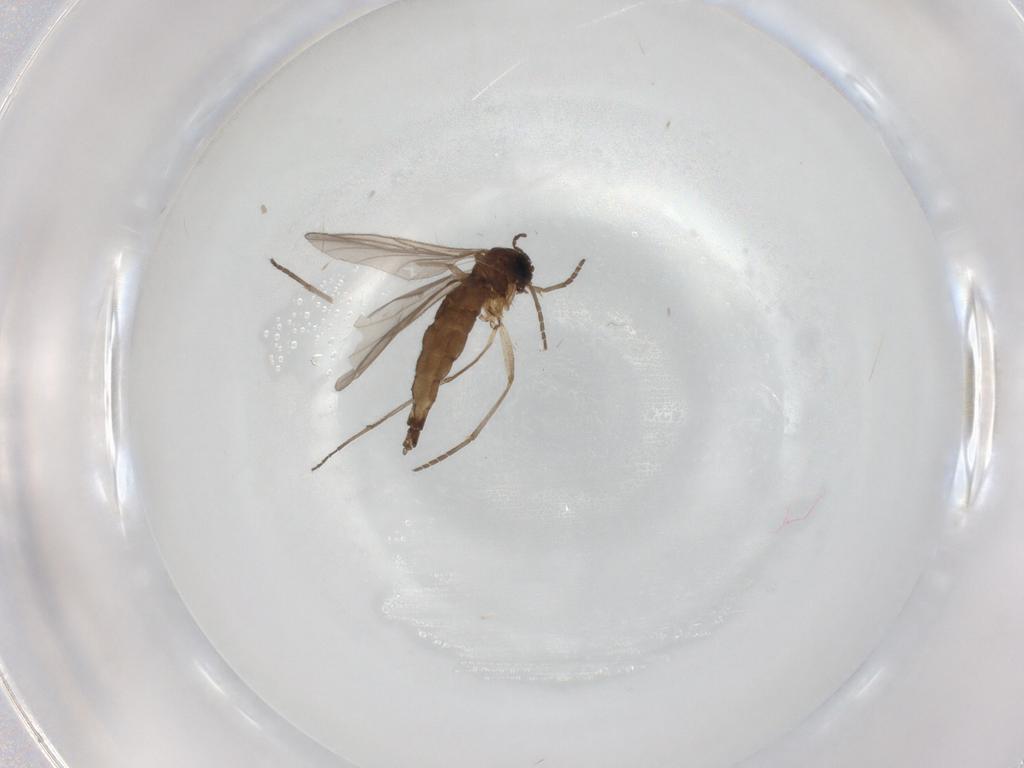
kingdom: Animalia
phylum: Arthropoda
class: Insecta
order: Diptera
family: Sciaridae
